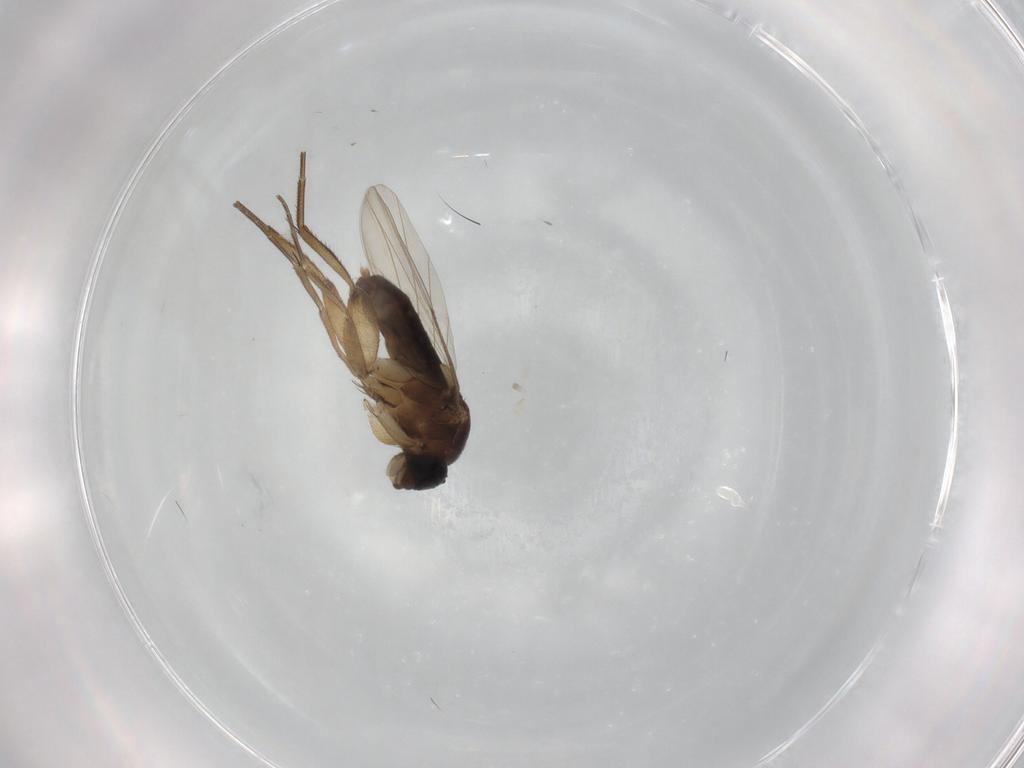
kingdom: Animalia
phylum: Arthropoda
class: Insecta
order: Diptera
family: Phoridae
